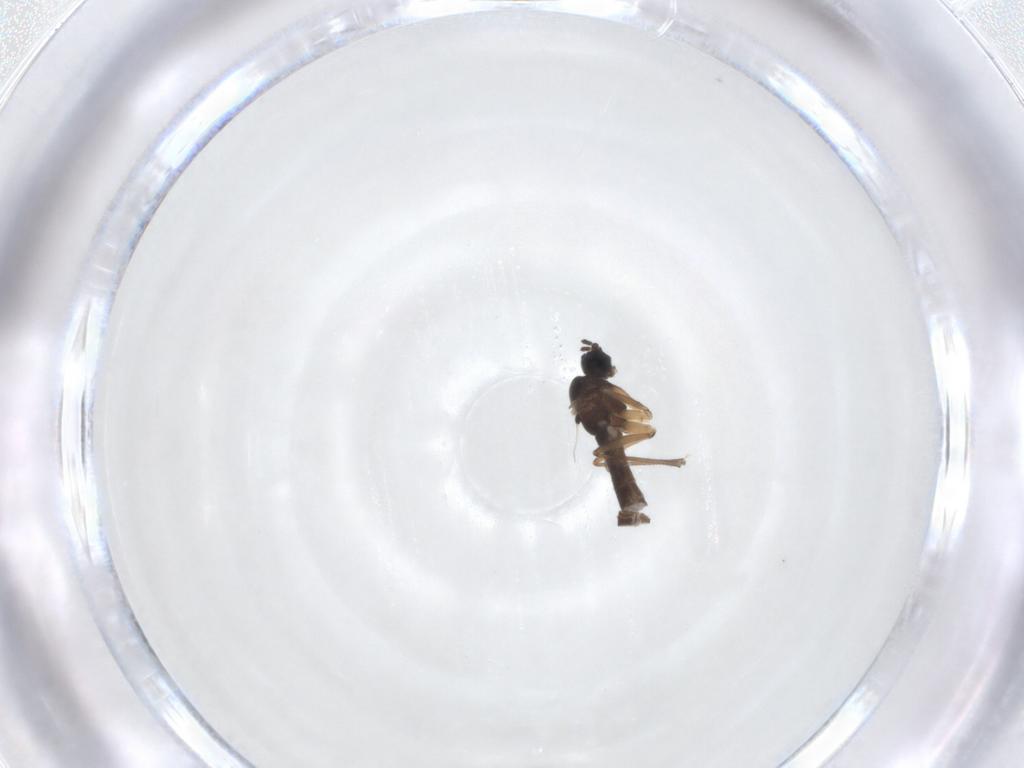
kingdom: Animalia
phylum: Arthropoda
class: Insecta
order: Diptera
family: Sciaridae
